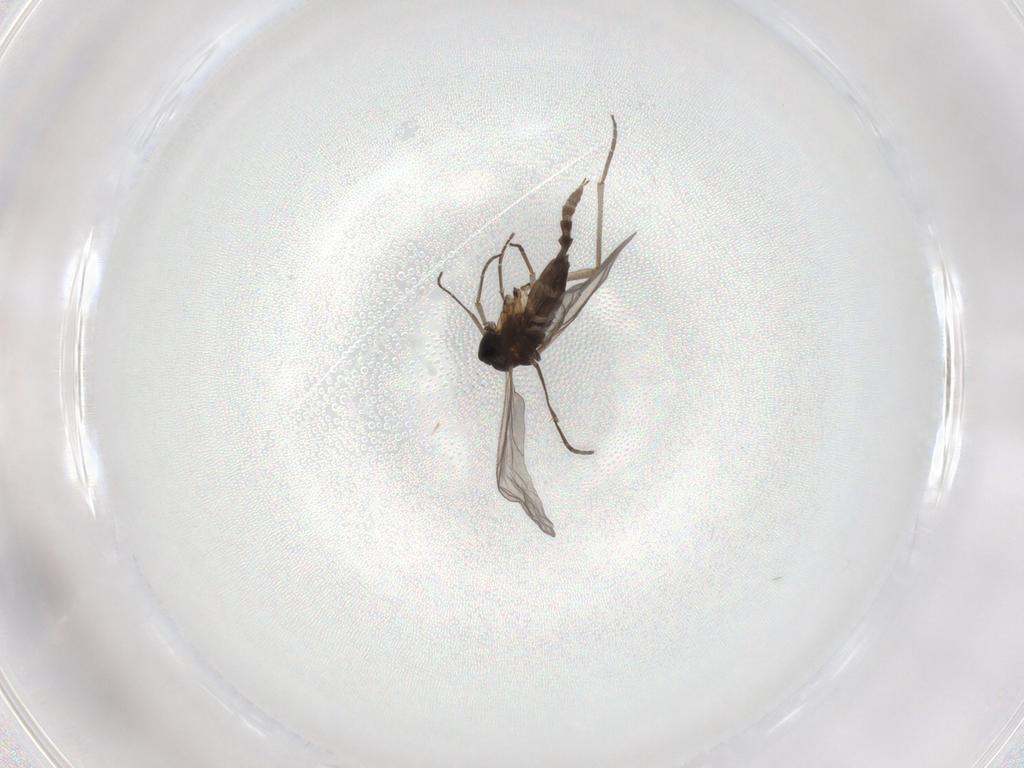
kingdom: Animalia
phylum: Arthropoda
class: Insecta
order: Diptera
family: Sciaridae
